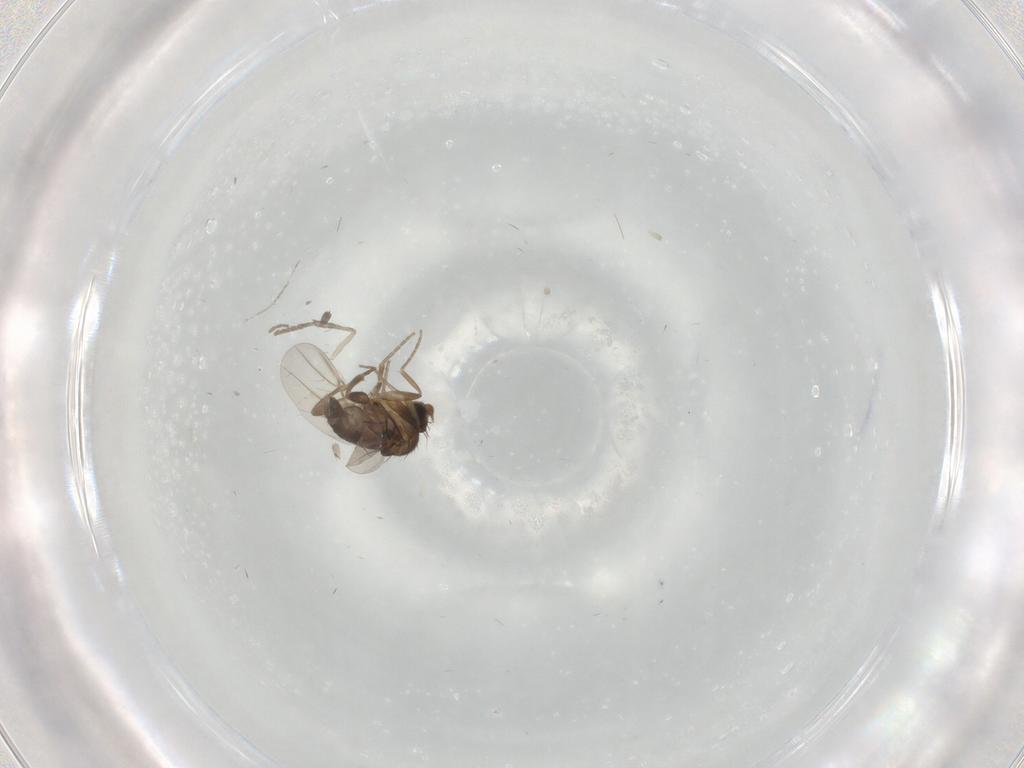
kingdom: Animalia
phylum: Arthropoda
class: Insecta
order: Diptera
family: Phoridae
